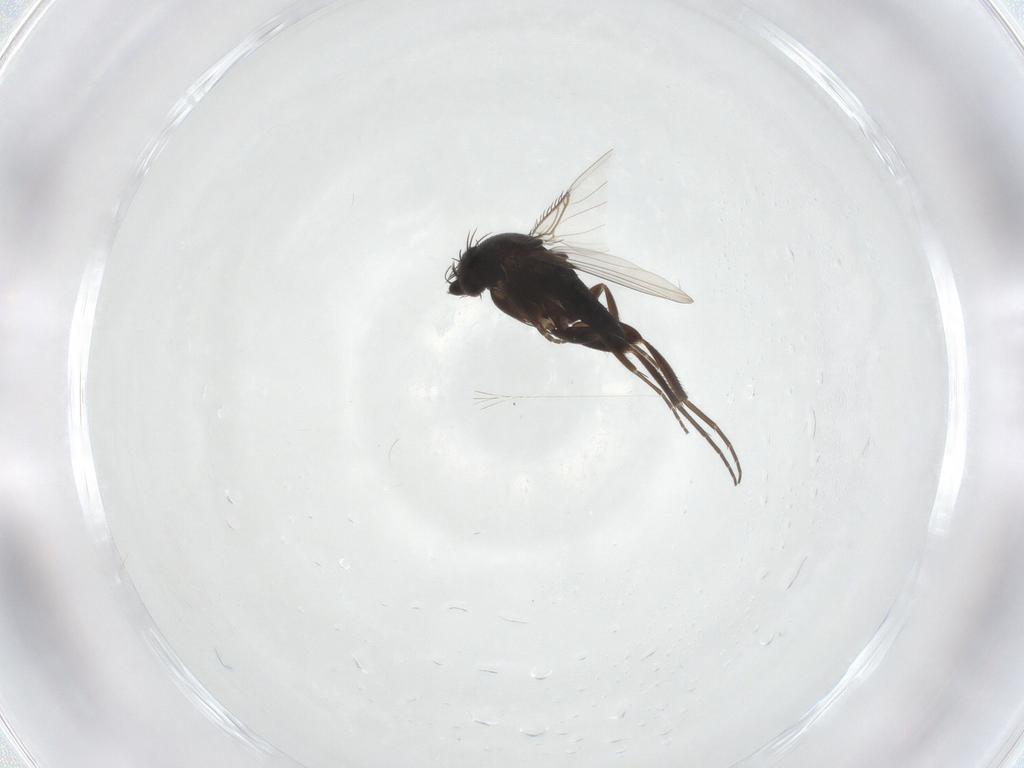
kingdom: Animalia
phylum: Arthropoda
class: Insecta
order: Diptera
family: Phoridae
